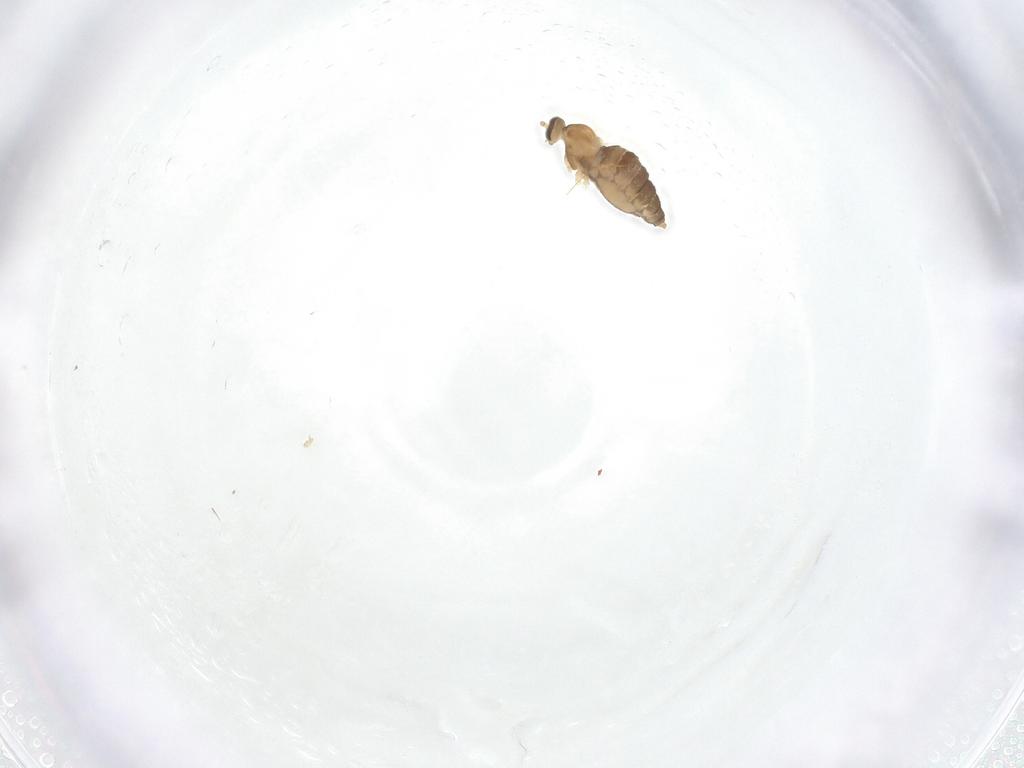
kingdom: Animalia
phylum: Arthropoda
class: Insecta
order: Diptera
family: Cecidomyiidae
